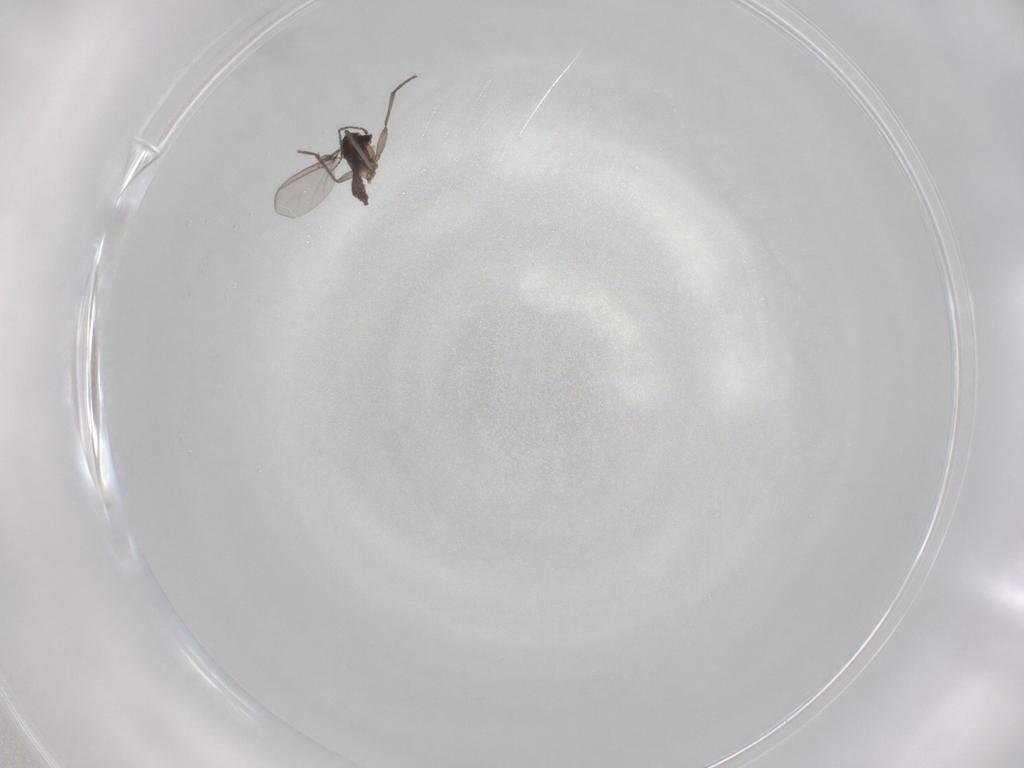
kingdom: Animalia
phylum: Arthropoda
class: Insecta
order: Diptera
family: Sciaridae
